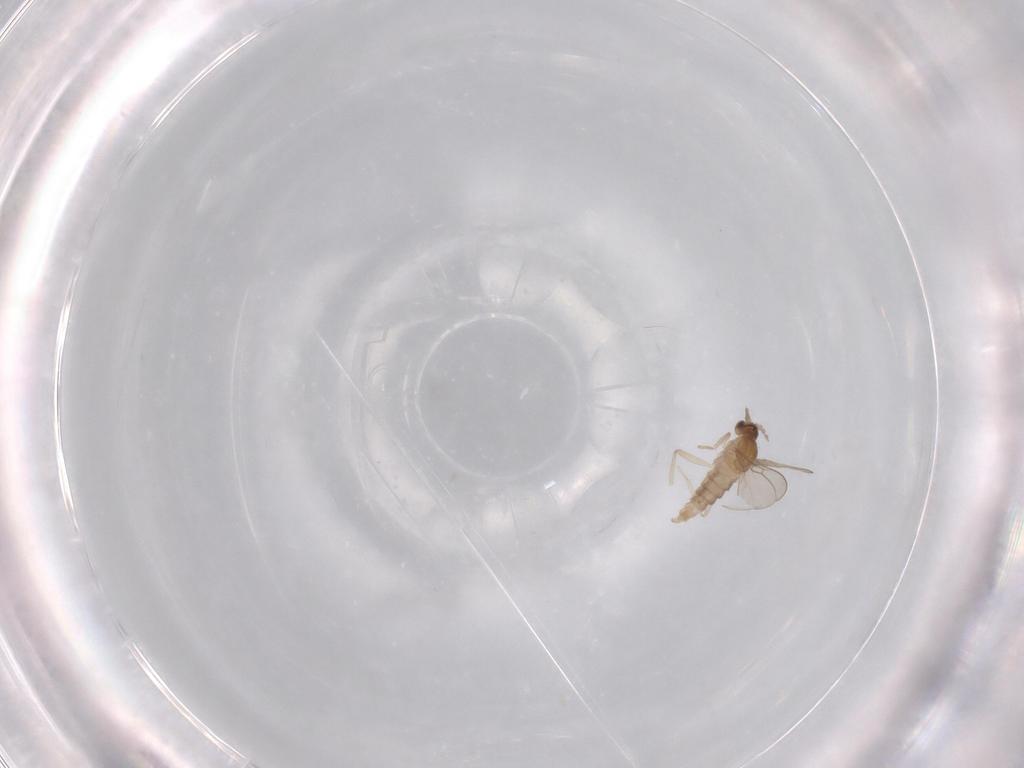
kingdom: Animalia
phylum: Arthropoda
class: Insecta
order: Diptera
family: Cecidomyiidae
